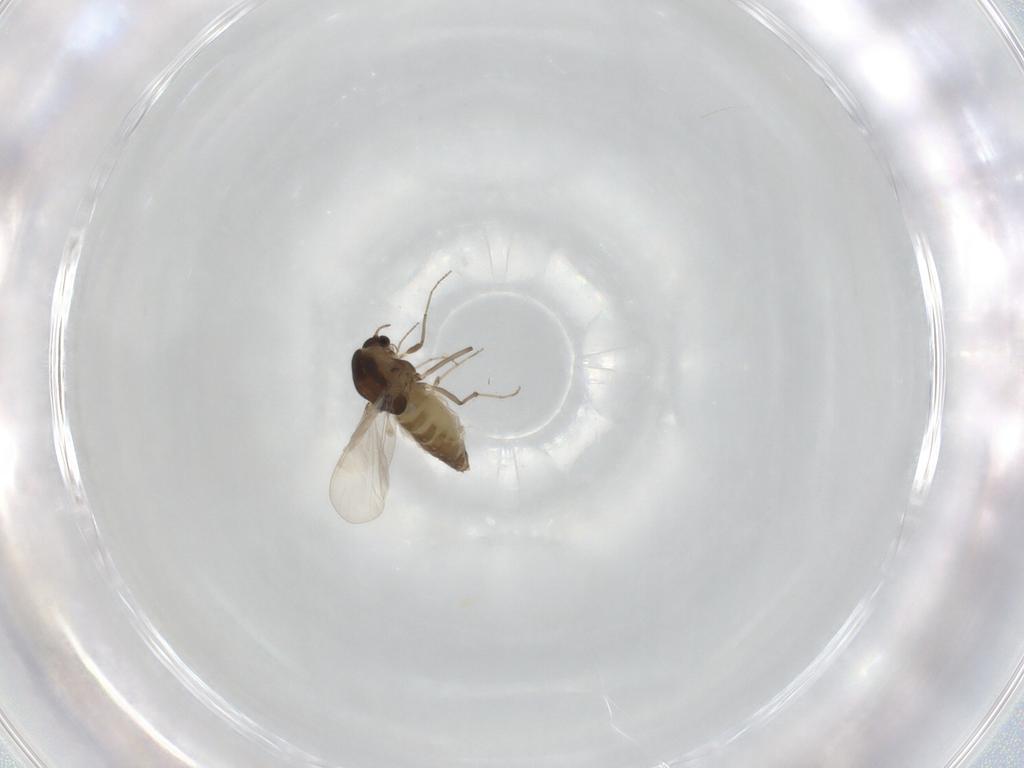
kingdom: Animalia
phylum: Arthropoda
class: Insecta
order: Diptera
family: Chironomidae
